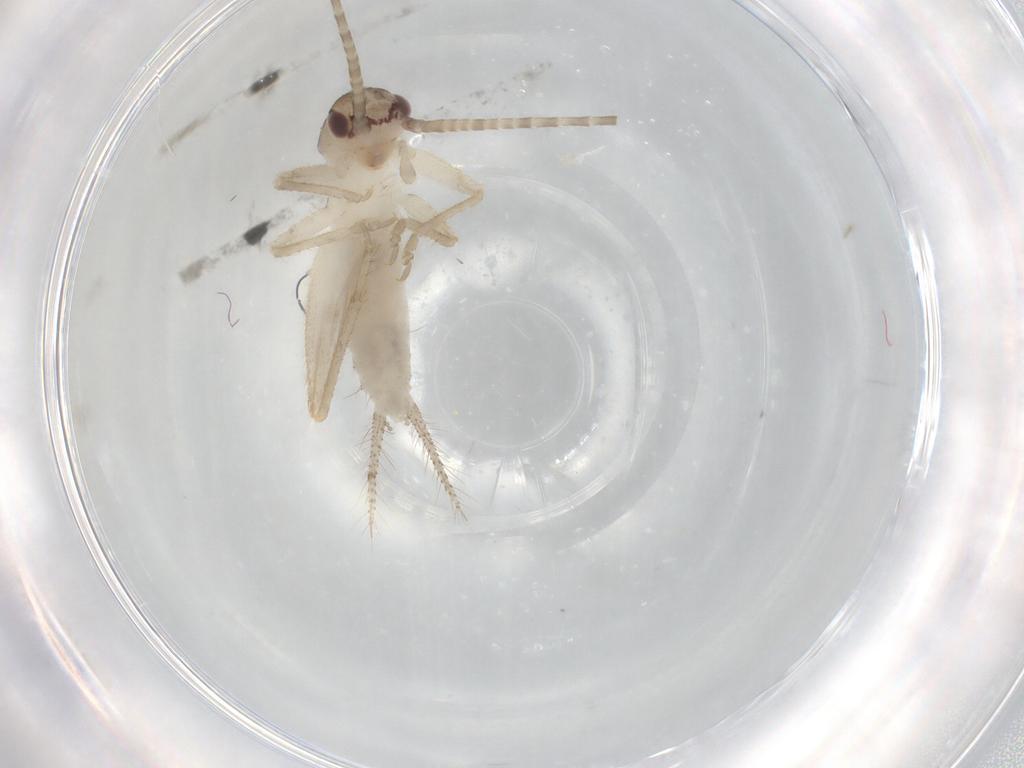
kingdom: Animalia
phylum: Arthropoda
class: Insecta
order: Orthoptera
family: Gryllidae
